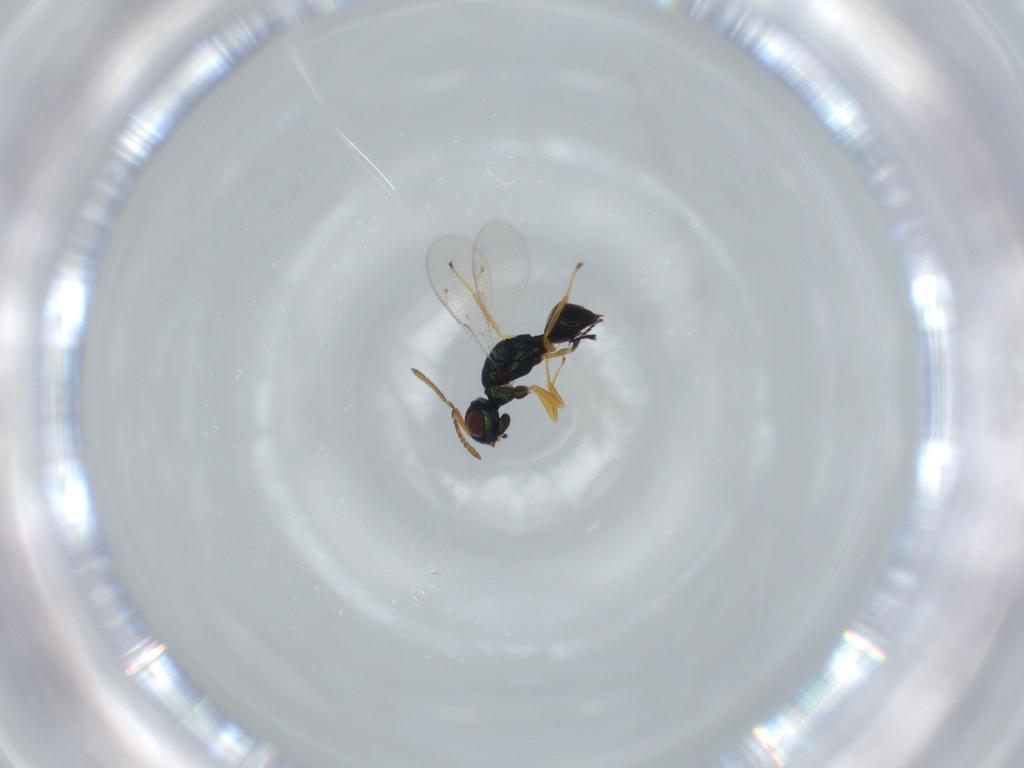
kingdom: Animalia
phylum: Arthropoda
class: Insecta
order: Hymenoptera
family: Pteromalidae
